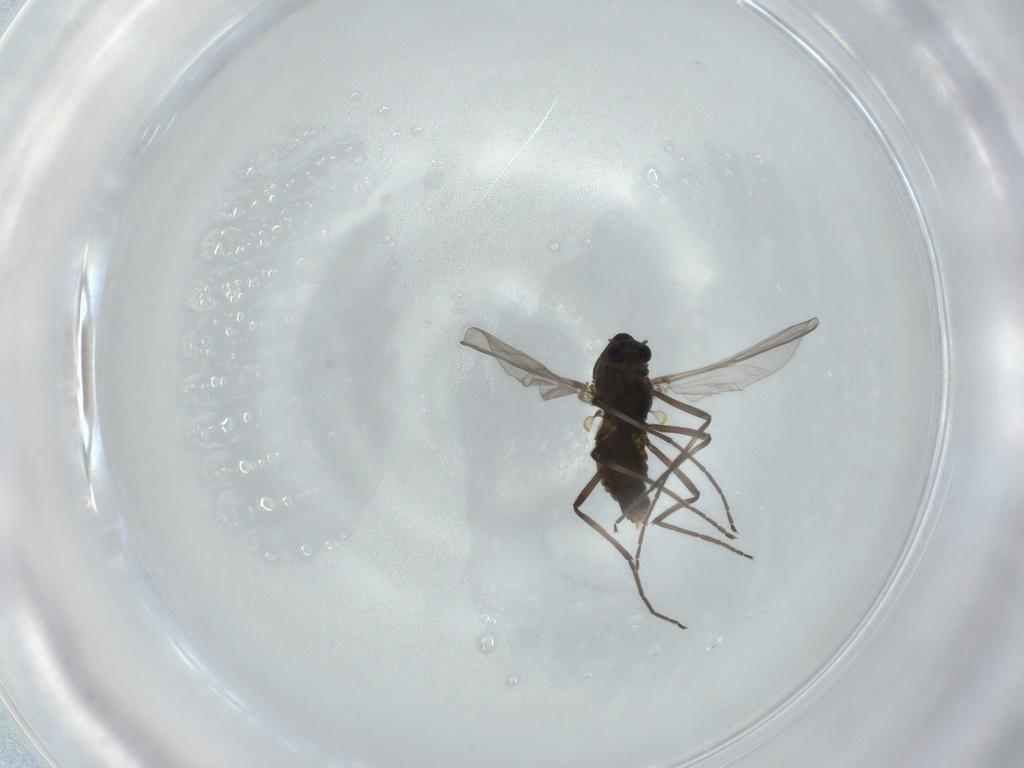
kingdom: Animalia
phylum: Arthropoda
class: Insecta
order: Diptera
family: Chironomidae
